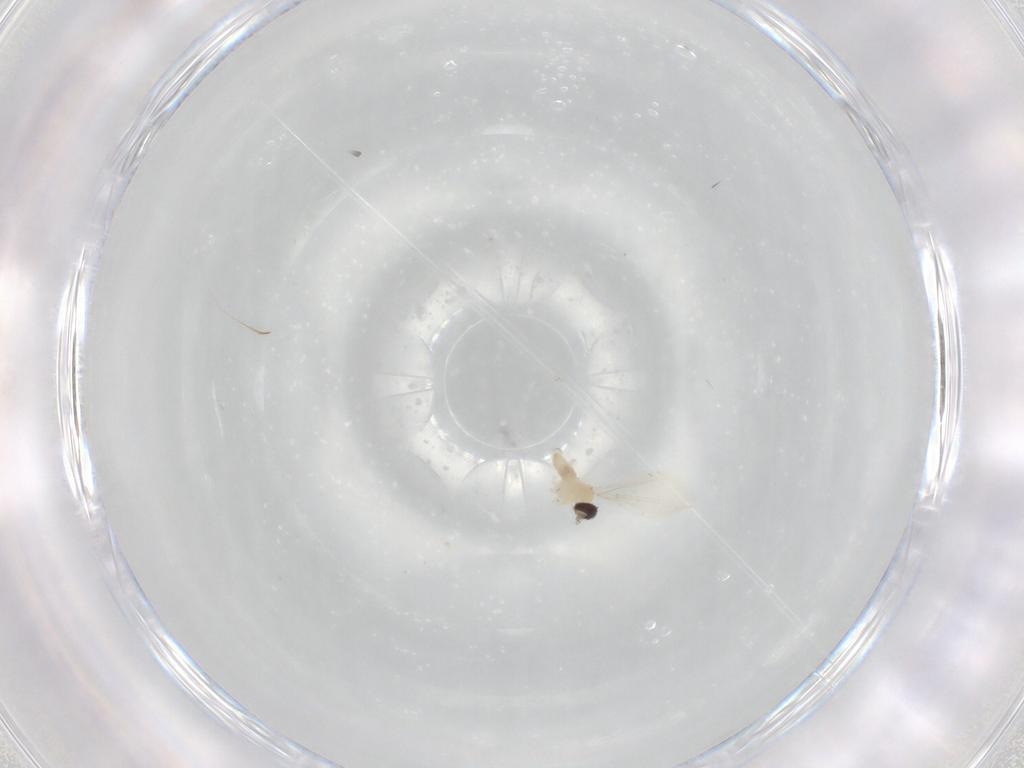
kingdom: Animalia
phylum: Arthropoda
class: Insecta
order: Diptera
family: Cecidomyiidae
